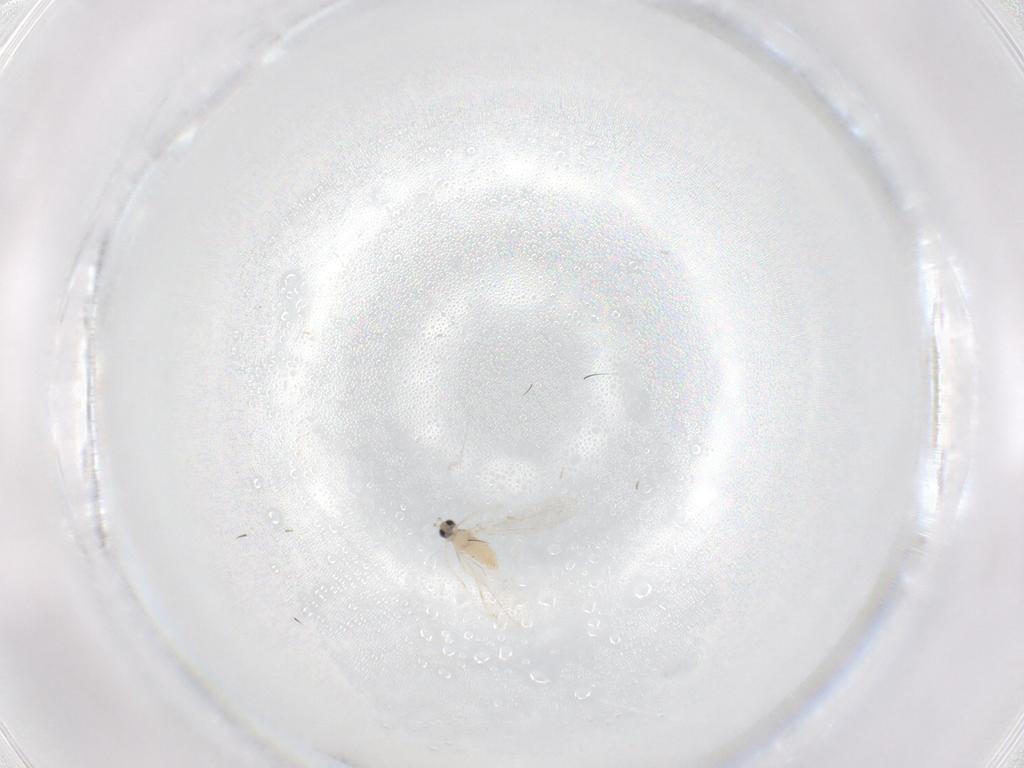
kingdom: Animalia
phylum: Arthropoda
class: Insecta
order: Diptera
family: Cecidomyiidae
